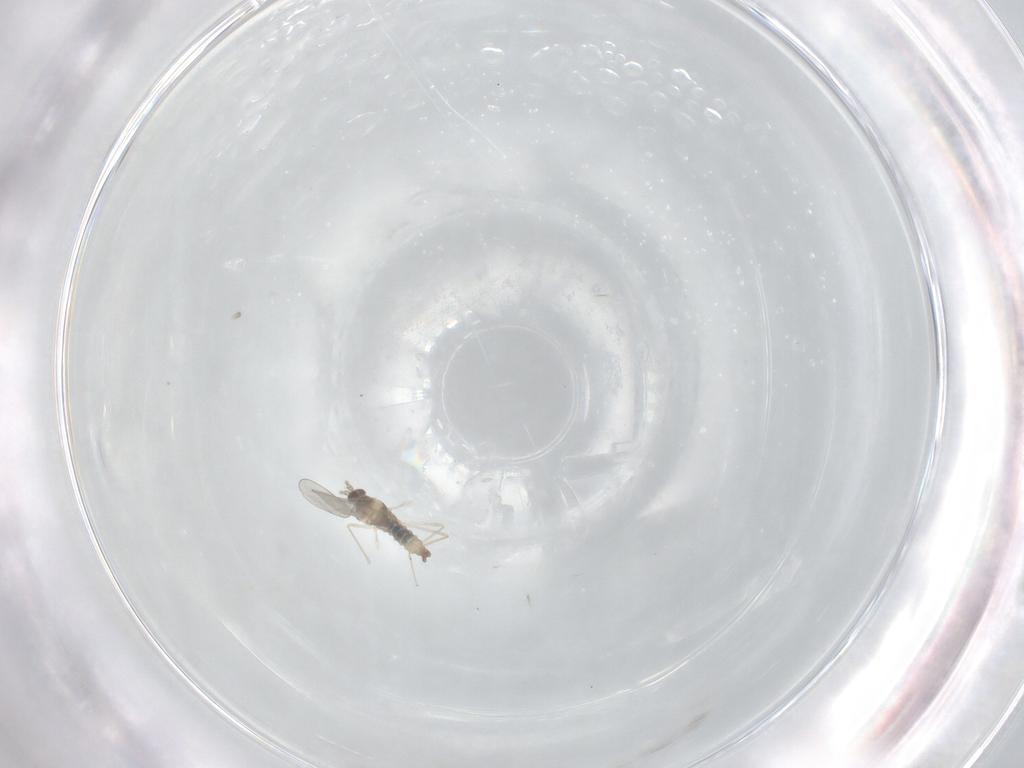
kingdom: Animalia
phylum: Arthropoda
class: Insecta
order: Diptera
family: Cecidomyiidae
